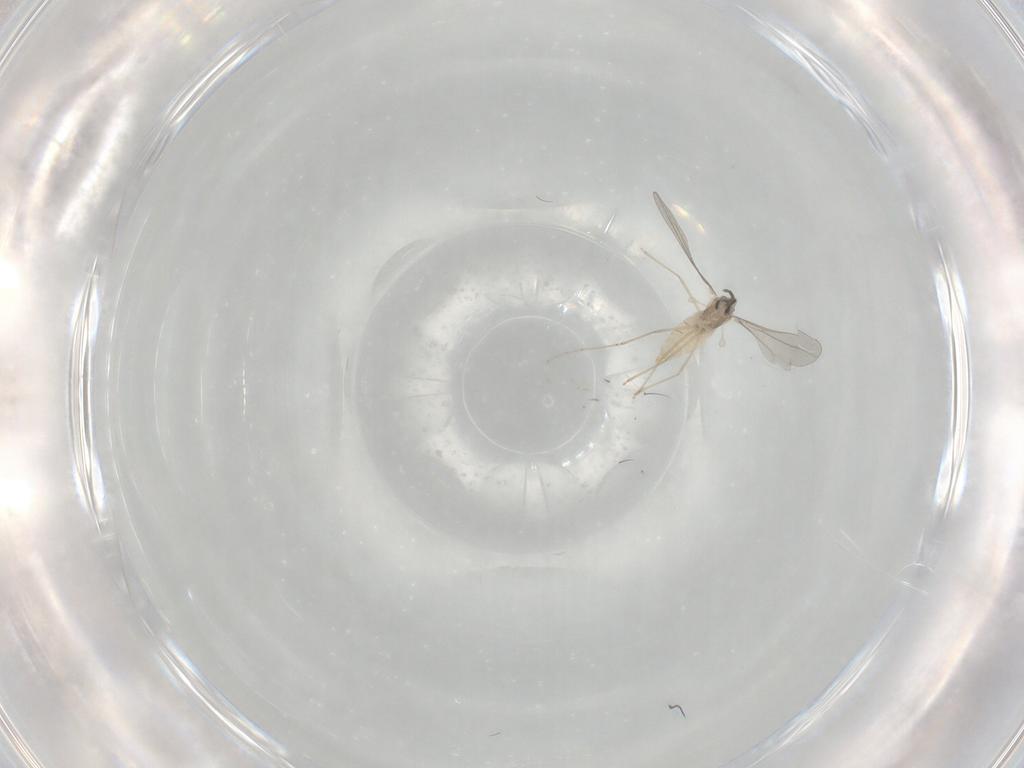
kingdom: Animalia
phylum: Arthropoda
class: Insecta
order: Diptera
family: Tabanidae
